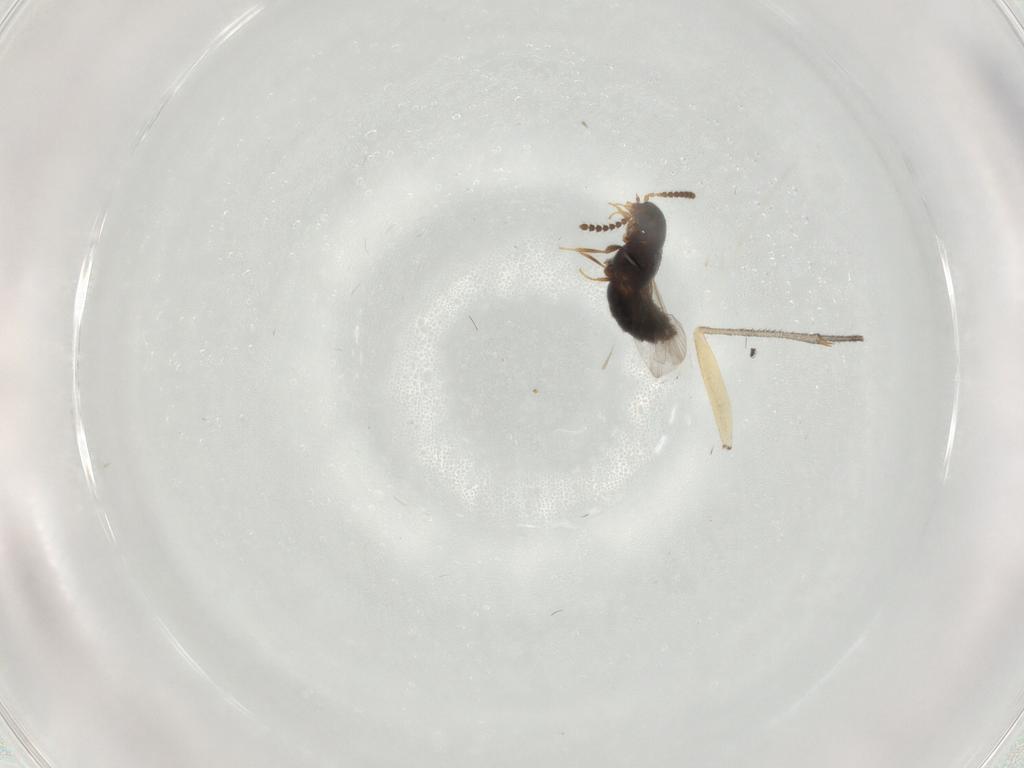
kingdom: Animalia
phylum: Arthropoda
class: Insecta
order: Coleoptera
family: Staphylinidae
